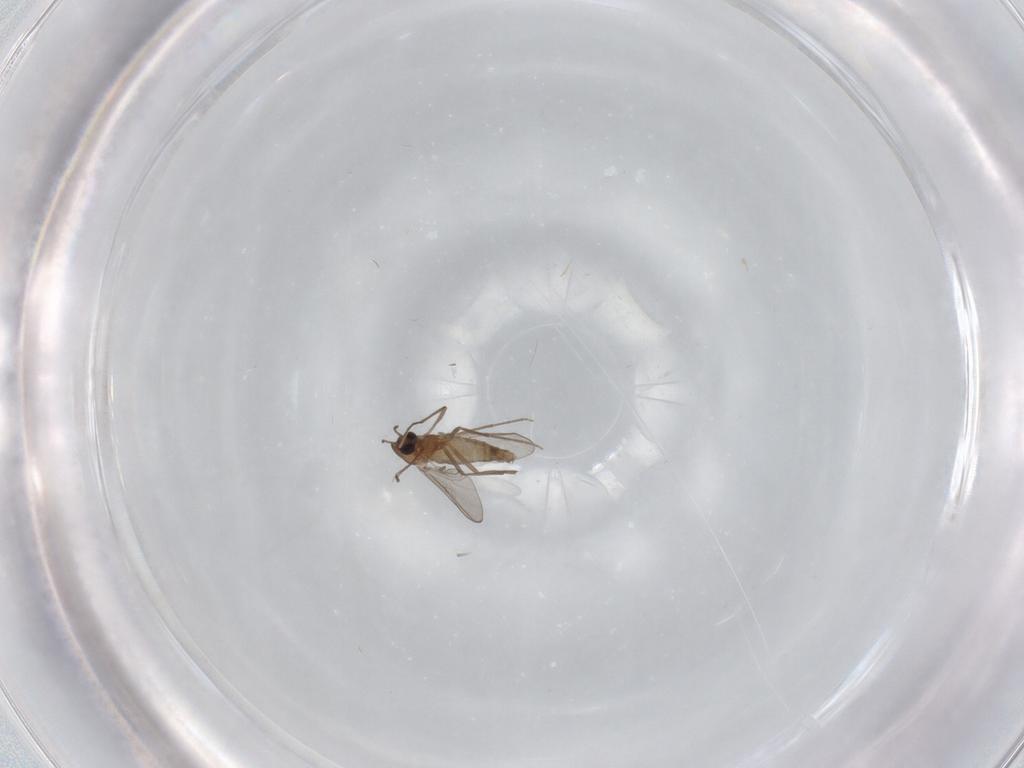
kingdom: Animalia
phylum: Arthropoda
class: Insecta
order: Diptera
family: Chironomidae
